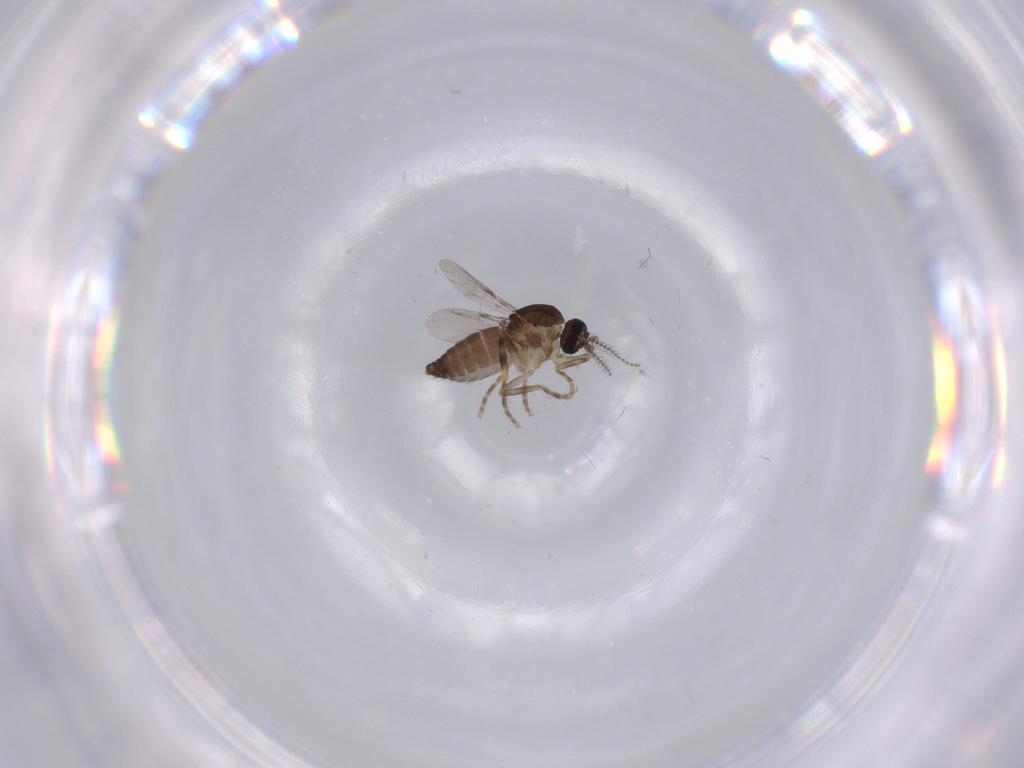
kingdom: Animalia
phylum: Arthropoda
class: Insecta
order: Diptera
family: Ceratopogonidae
